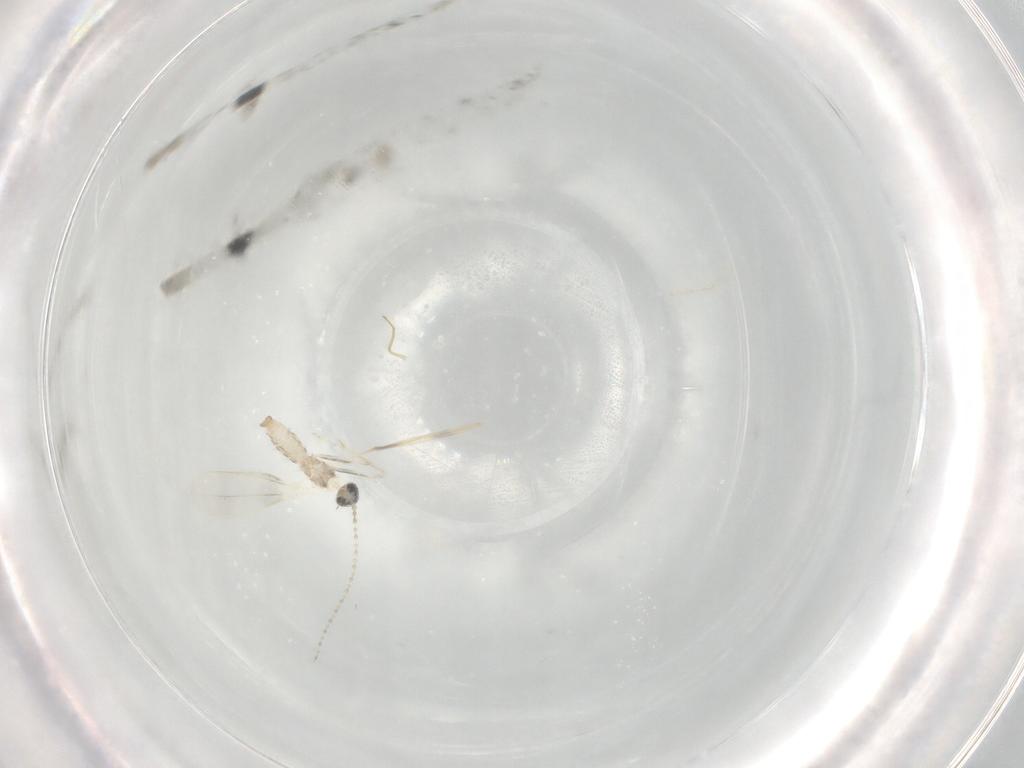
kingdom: Animalia
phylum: Arthropoda
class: Insecta
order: Diptera
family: Cecidomyiidae
